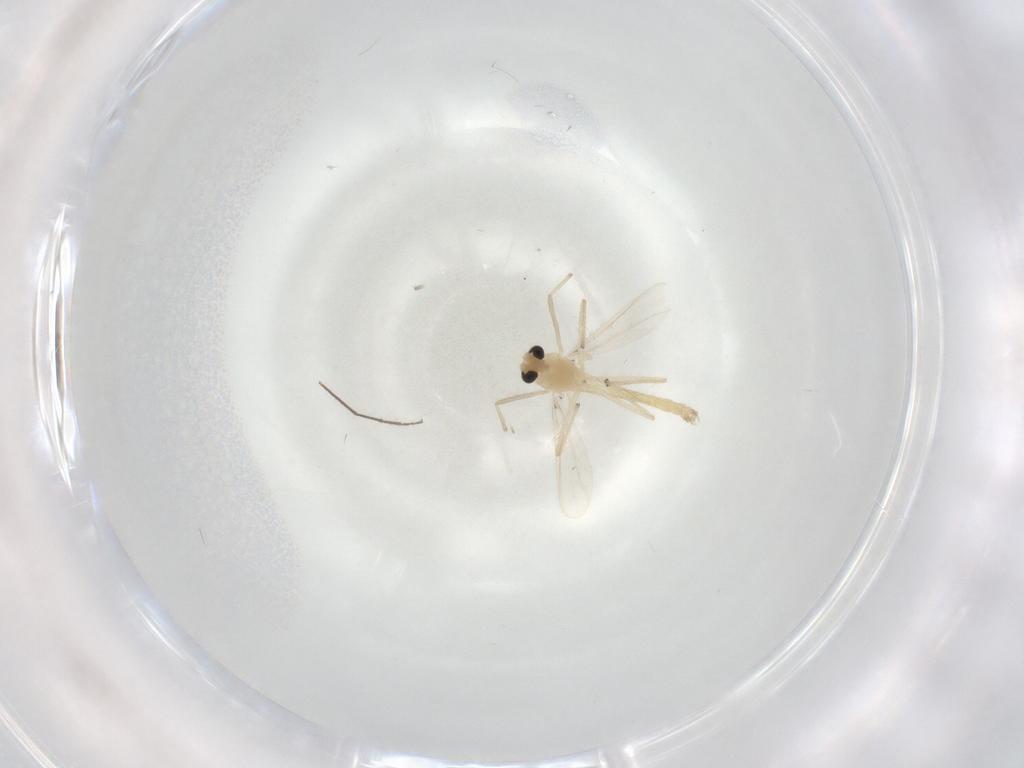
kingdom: Animalia
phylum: Arthropoda
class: Insecta
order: Diptera
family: Chironomidae
